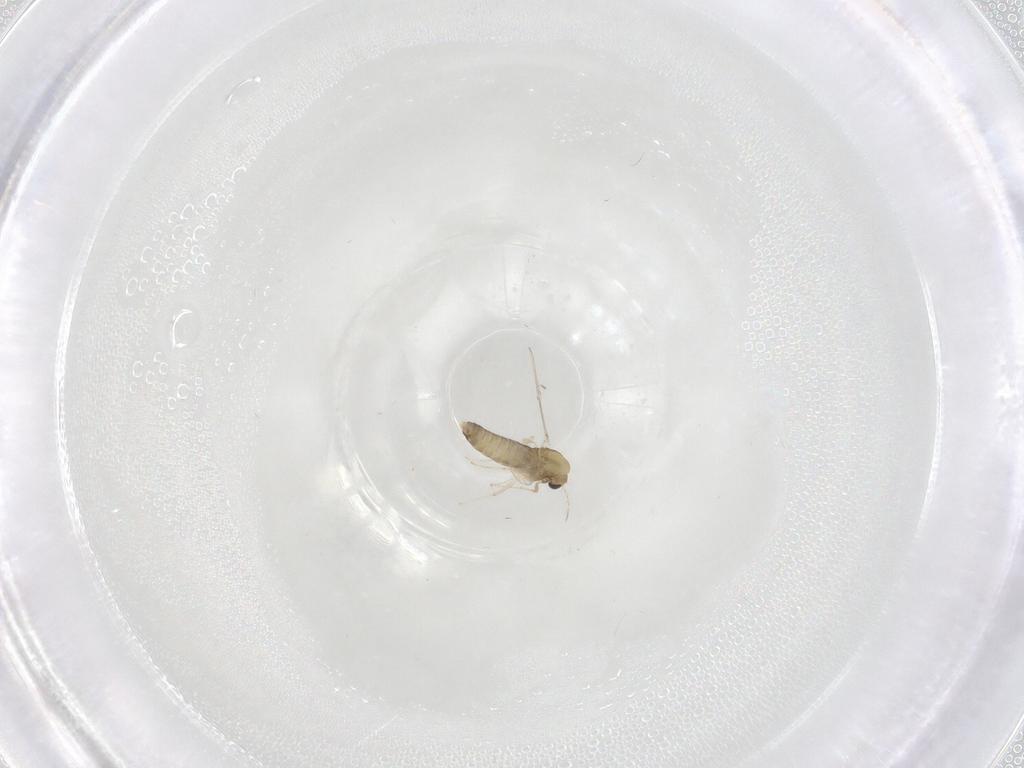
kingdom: Animalia
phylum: Arthropoda
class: Insecta
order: Diptera
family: Chironomidae
